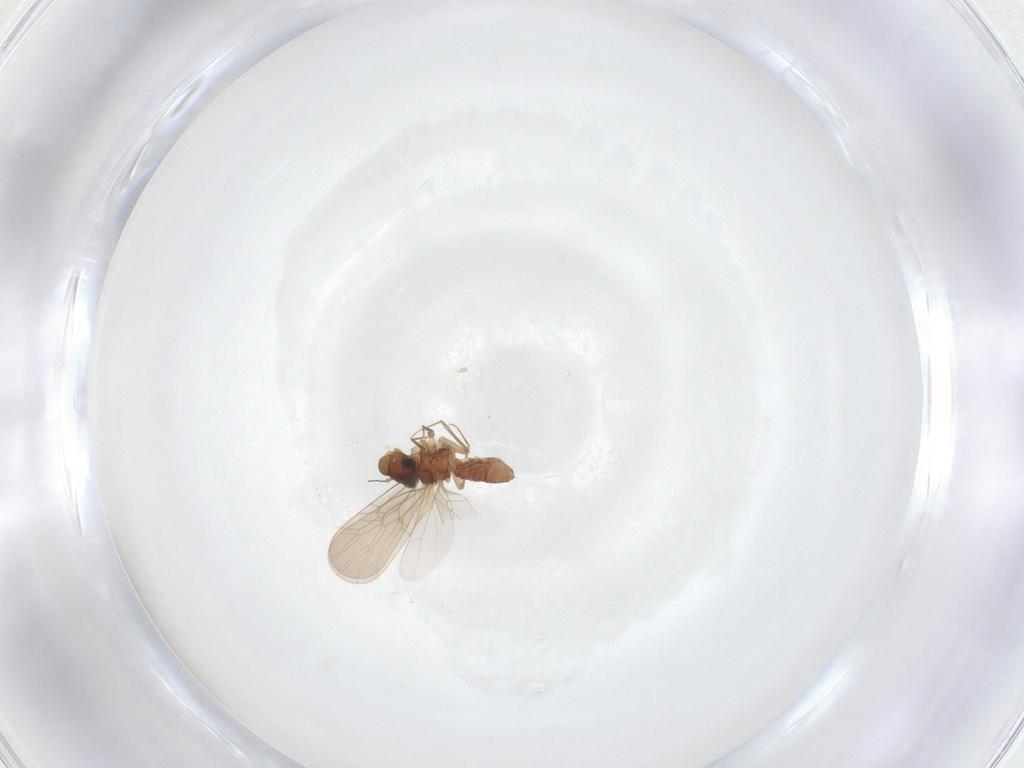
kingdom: Animalia
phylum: Arthropoda
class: Insecta
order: Psocodea
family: Lepidopsocidae
